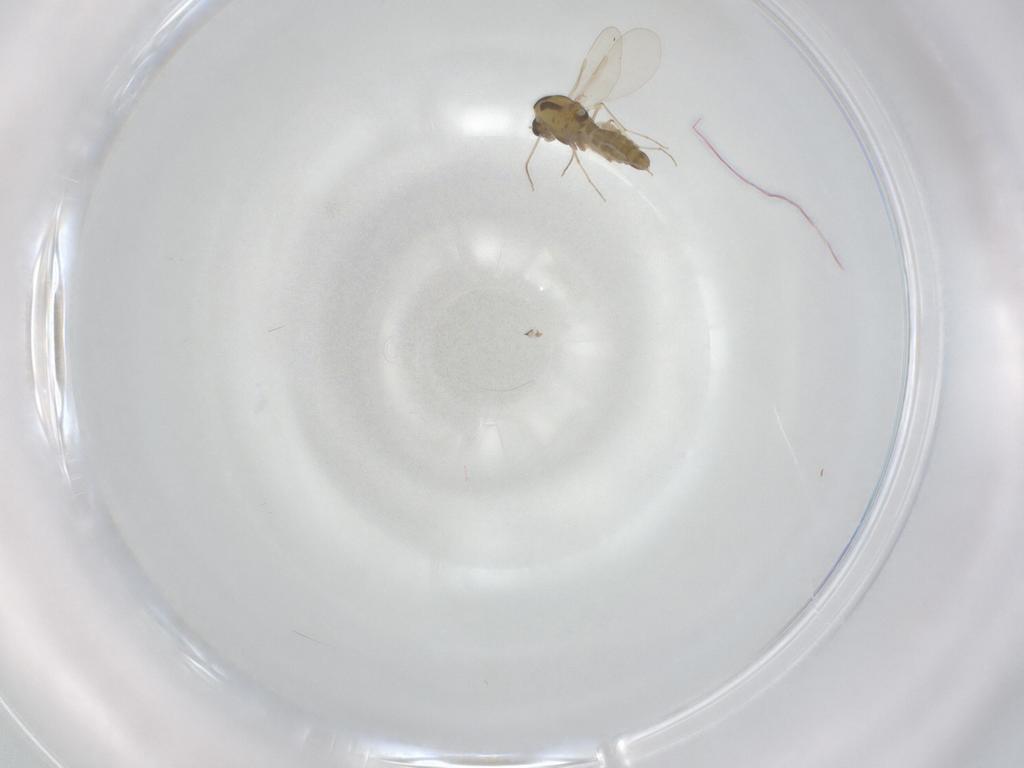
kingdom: Animalia
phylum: Arthropoda
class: Insecta
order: Diptera
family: Chironomidae
